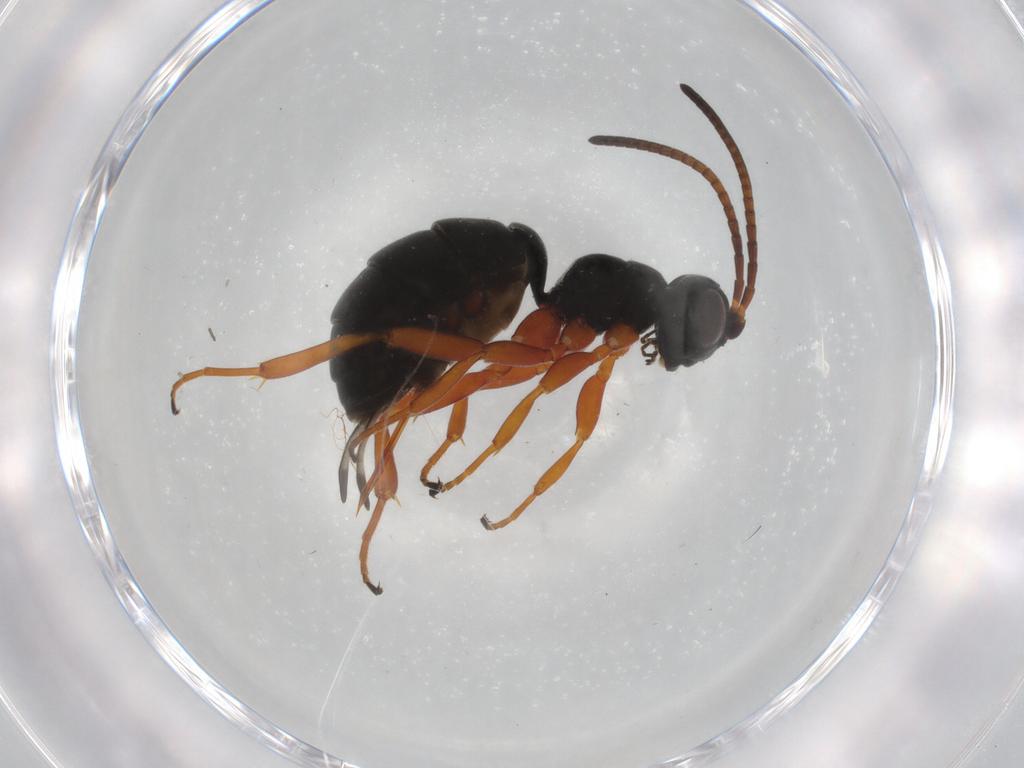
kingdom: Animalia
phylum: Arthropoda
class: Insecta
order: Hymenoptera
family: Ichneumonidae
